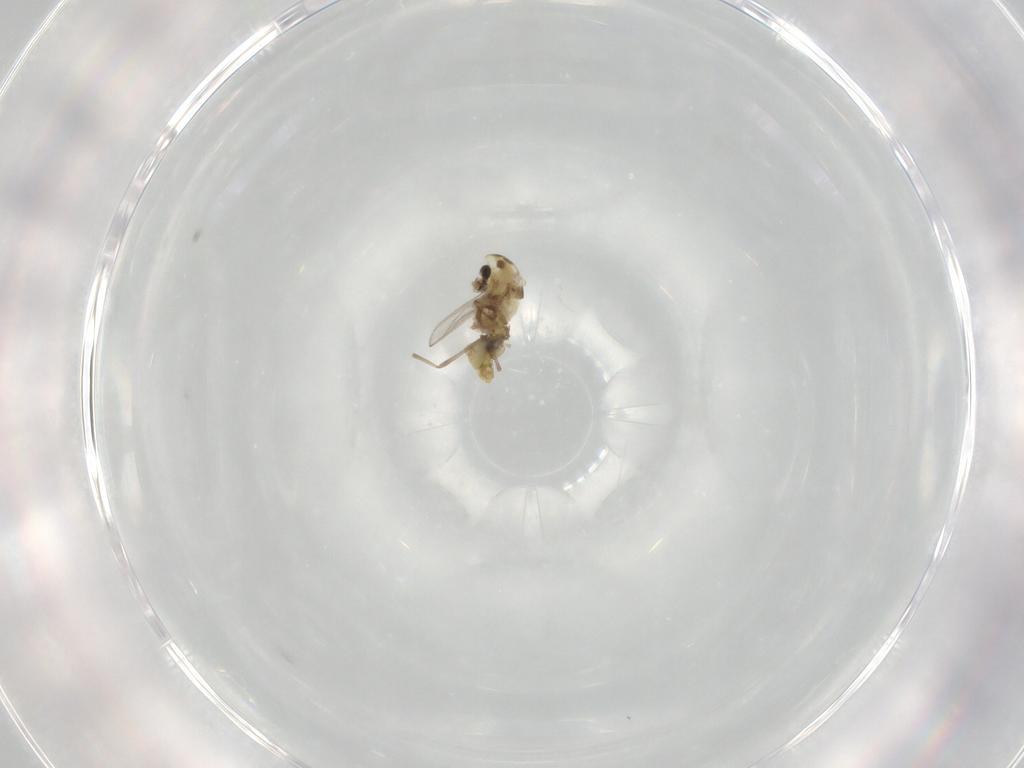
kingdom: Animalia
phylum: Arthropoda
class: Insecta
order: Diptera
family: Chironomidae
